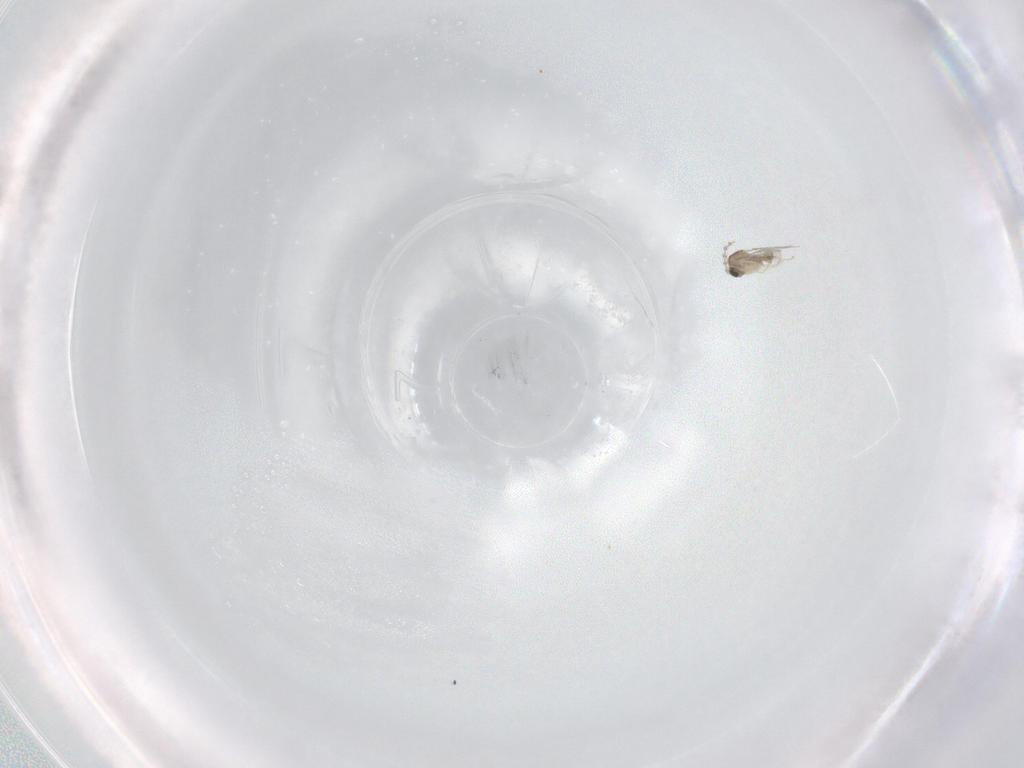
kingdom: Animalia
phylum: Arthropoda
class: Insecta
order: Diptera
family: Cecidomyiidae
